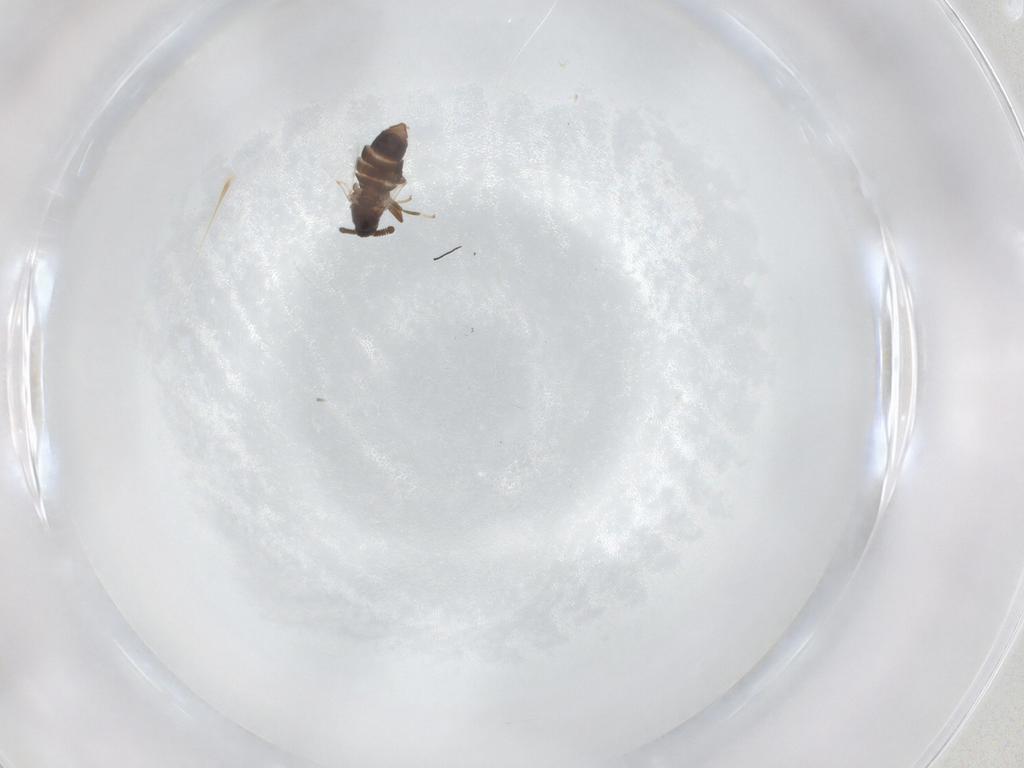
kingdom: Animalia
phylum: Arthropoda
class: Insecta
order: Diptera
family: Scatopsidae
